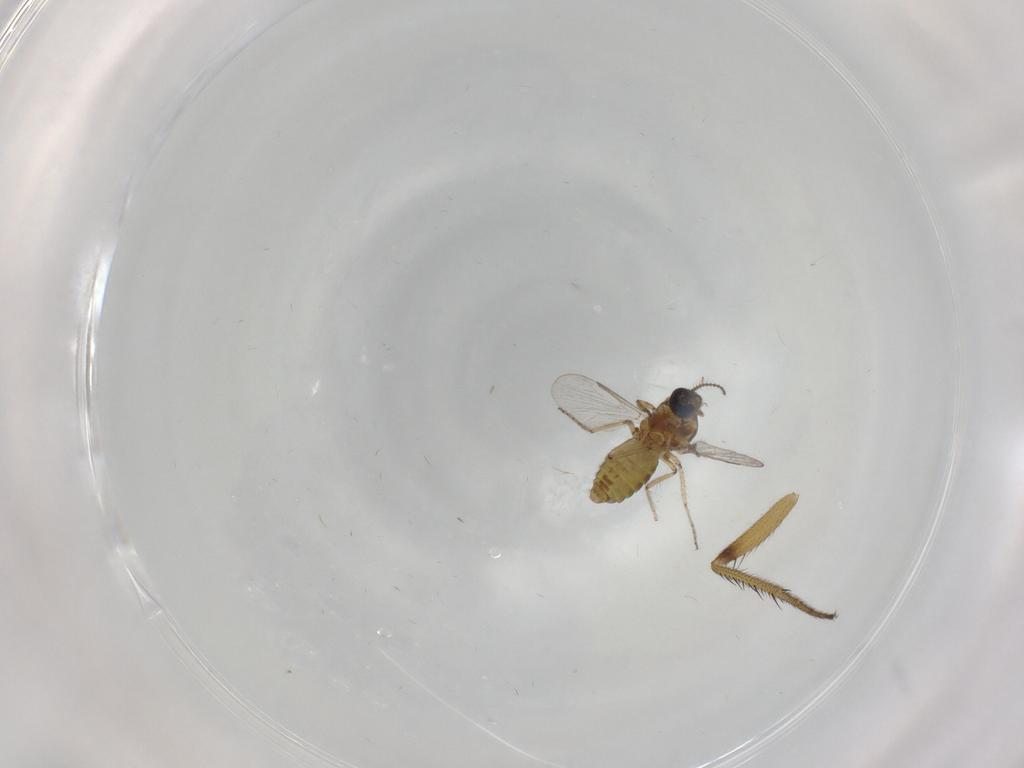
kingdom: Animalia
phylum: Arthropoda
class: Insecta
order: Diptera
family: Ceratopogonidae
